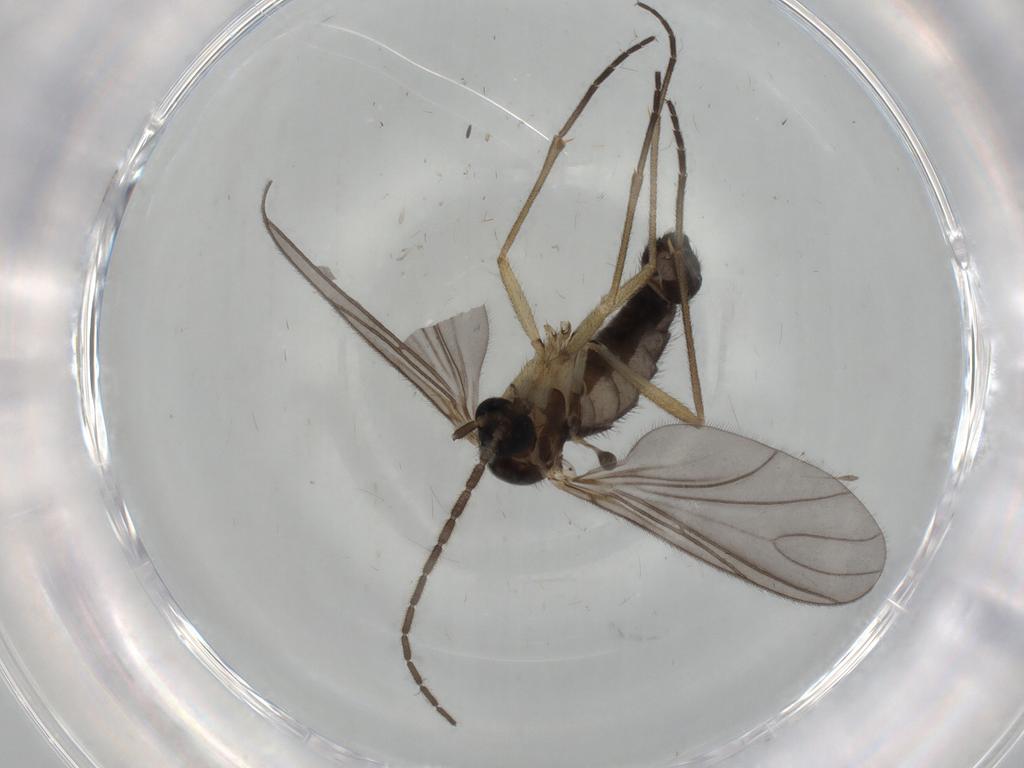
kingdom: Animalia
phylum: Arthropoda
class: Insecta
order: Diptera
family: Sciaridae
